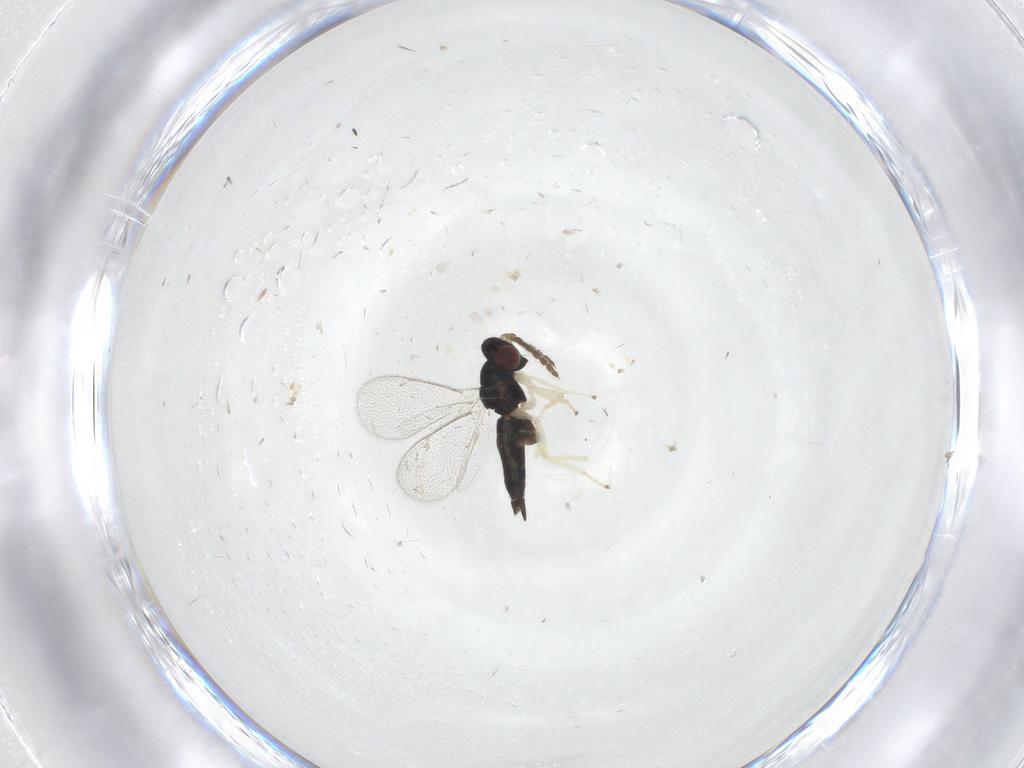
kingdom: Animalia
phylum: Arthropoda
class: Insecta
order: Hymenoptera
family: Eulophidae
